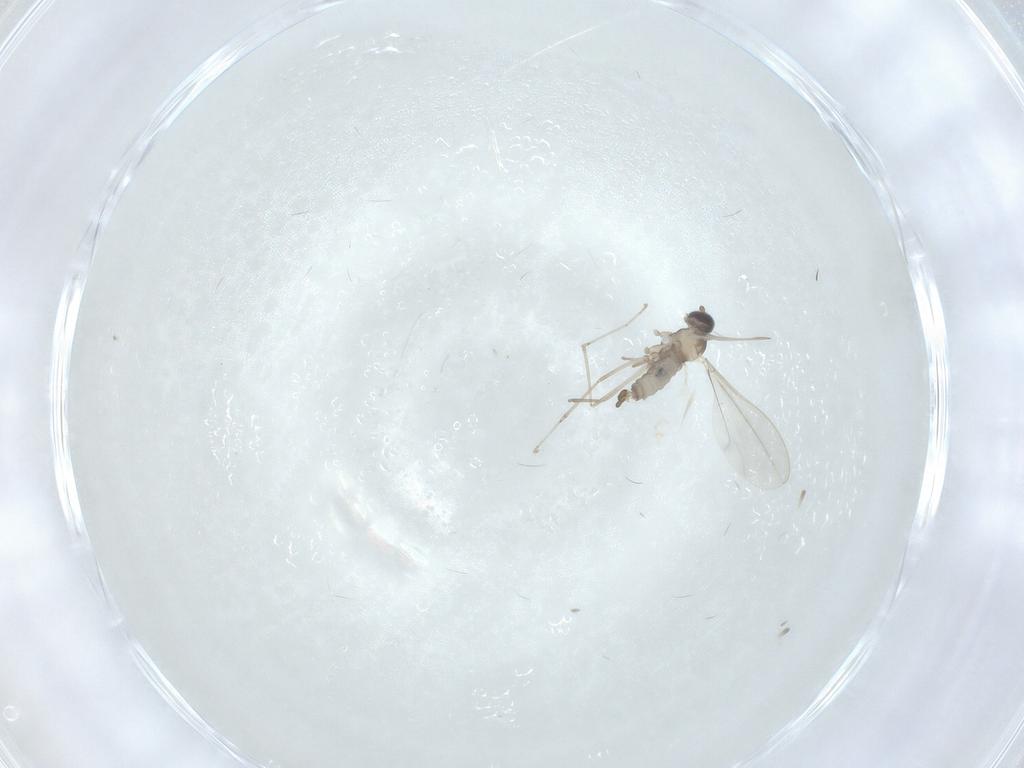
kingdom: Animalia
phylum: Arthropoda
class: Insecta
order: Diptera
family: Cecidomyiidae
